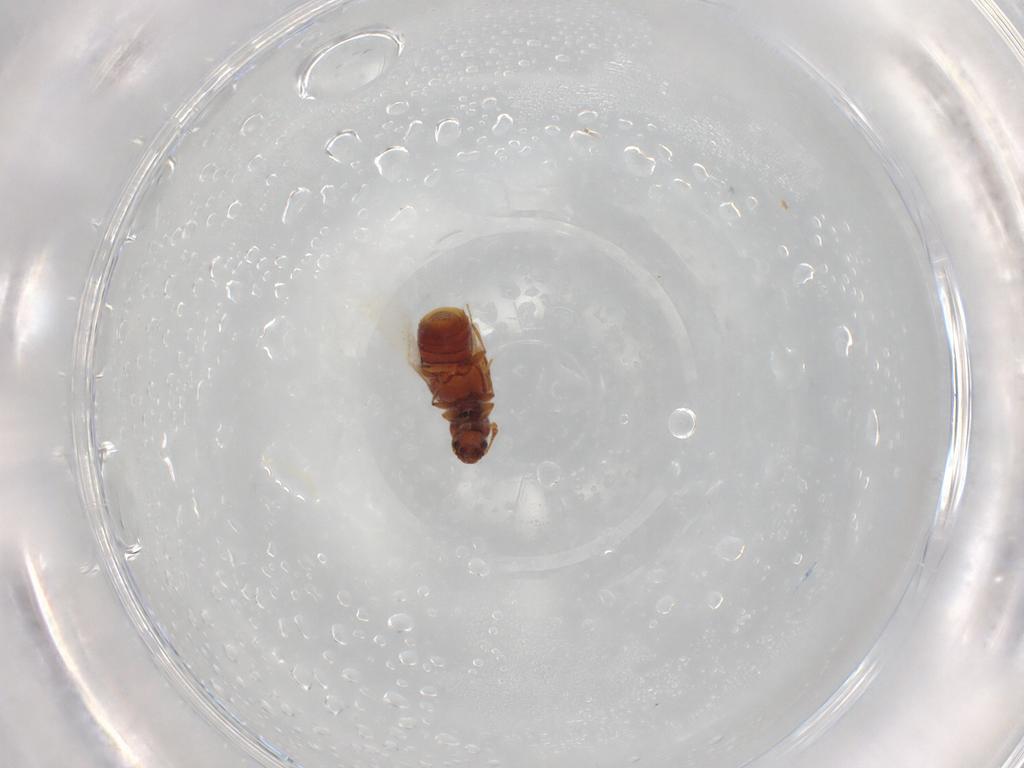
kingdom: Animalia
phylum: Arthropoda
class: Insecta
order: Coleoptera
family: Staphylinidae
